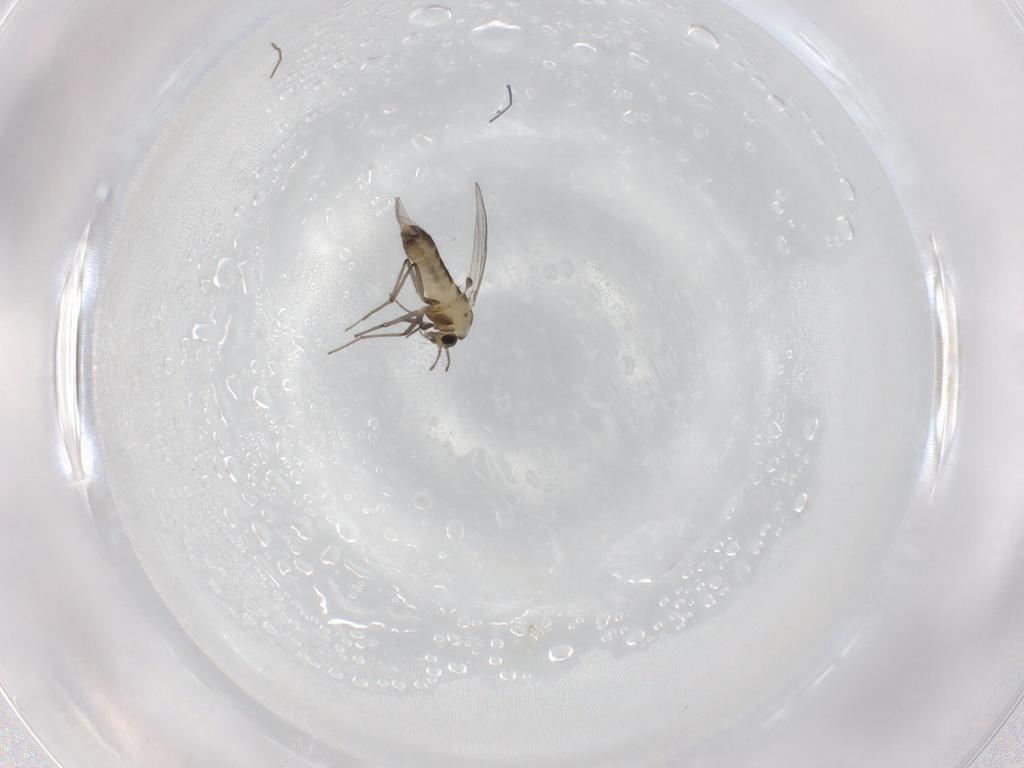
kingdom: Animalia
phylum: Arthropoda
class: Insecta
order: Diptera
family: Chironomidae
